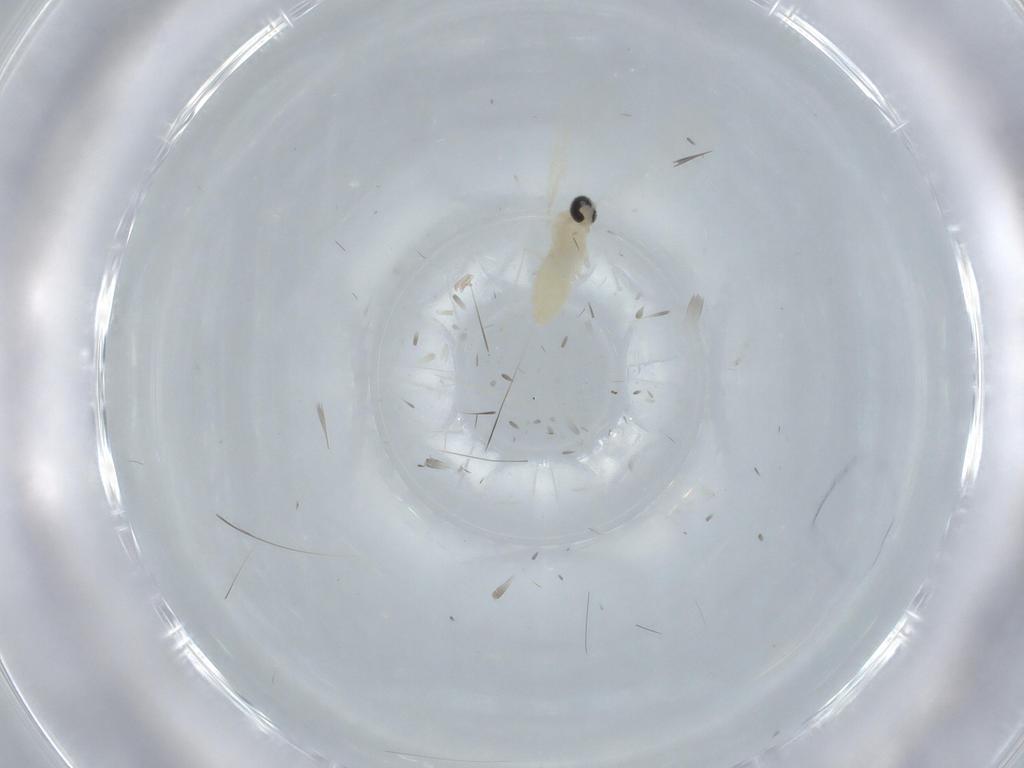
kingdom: Animalia
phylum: Arthropoda
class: Insecta
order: Diptera
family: Cecidomyiidae
